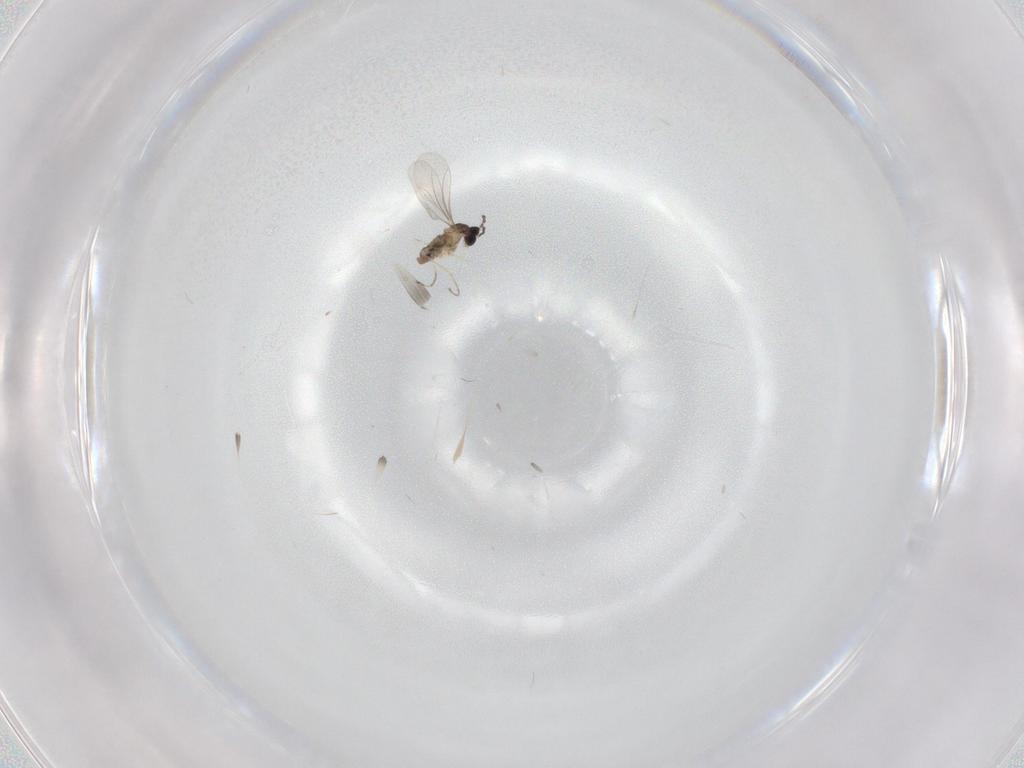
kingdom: Animalia
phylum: Arthropoda
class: Insecta
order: Diptera
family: Cecidomyiidae
